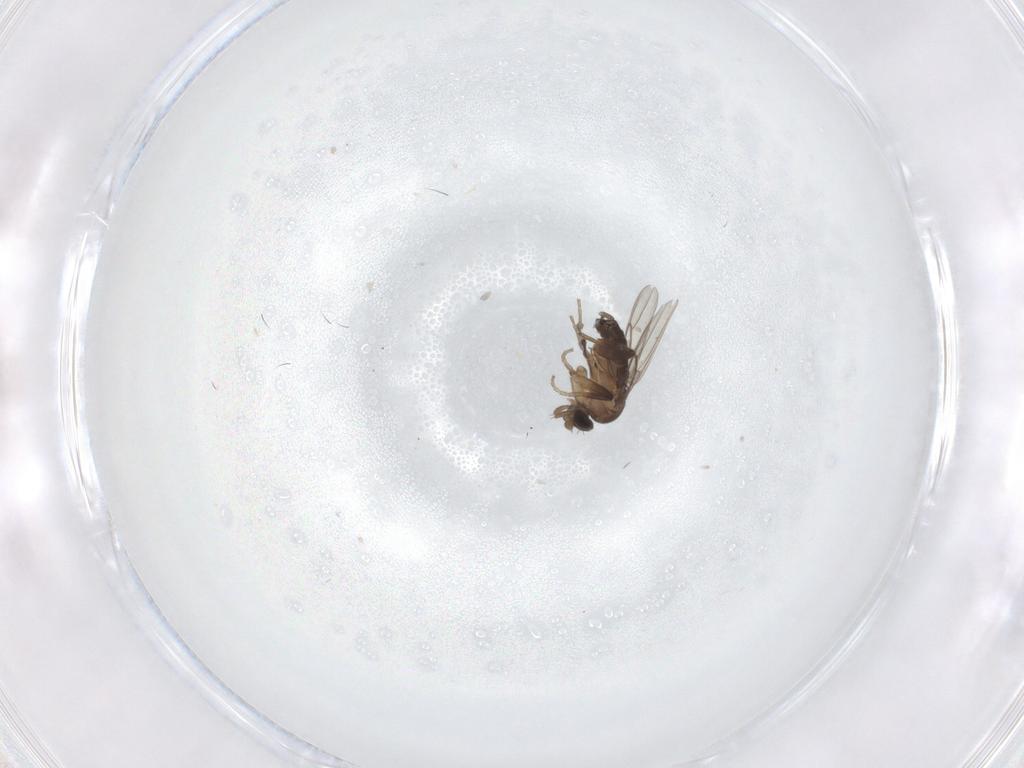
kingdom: Animalia
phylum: Arthropoda
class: Insecta
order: Diptera
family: Phoridae
